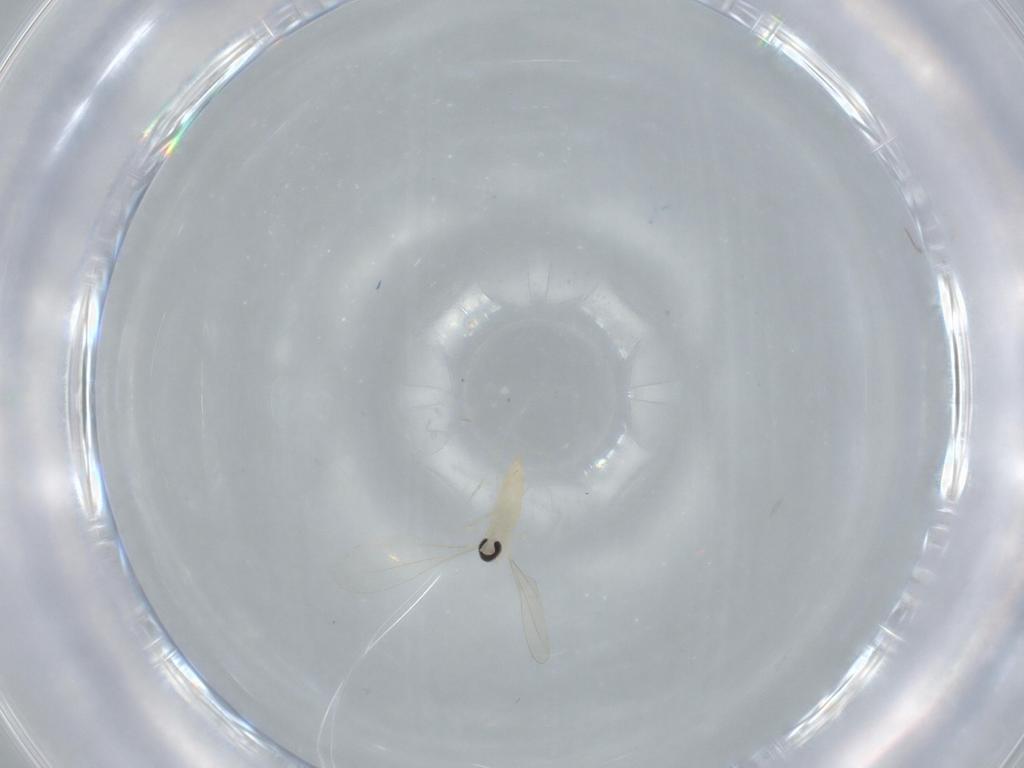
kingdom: Animalia
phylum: Arthropoda
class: Insecta
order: Diptera
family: Cecidomyiidae
